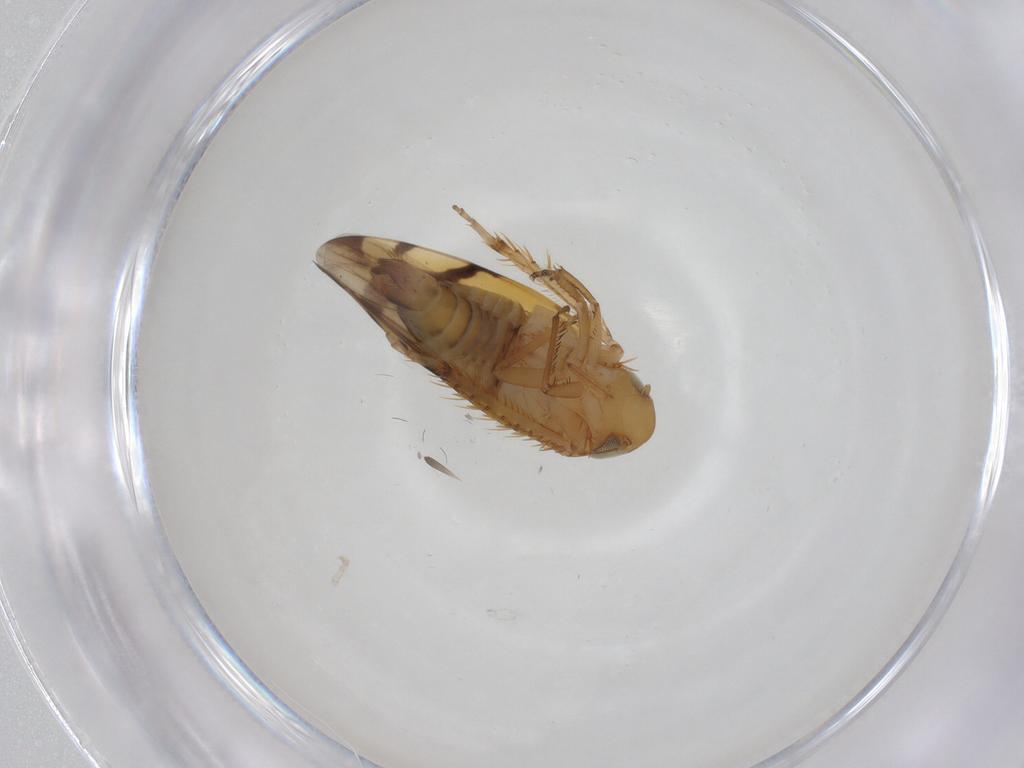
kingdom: Animalia
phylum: Arthropoda
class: Insecta
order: Hemiptera
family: Cicadellidae
